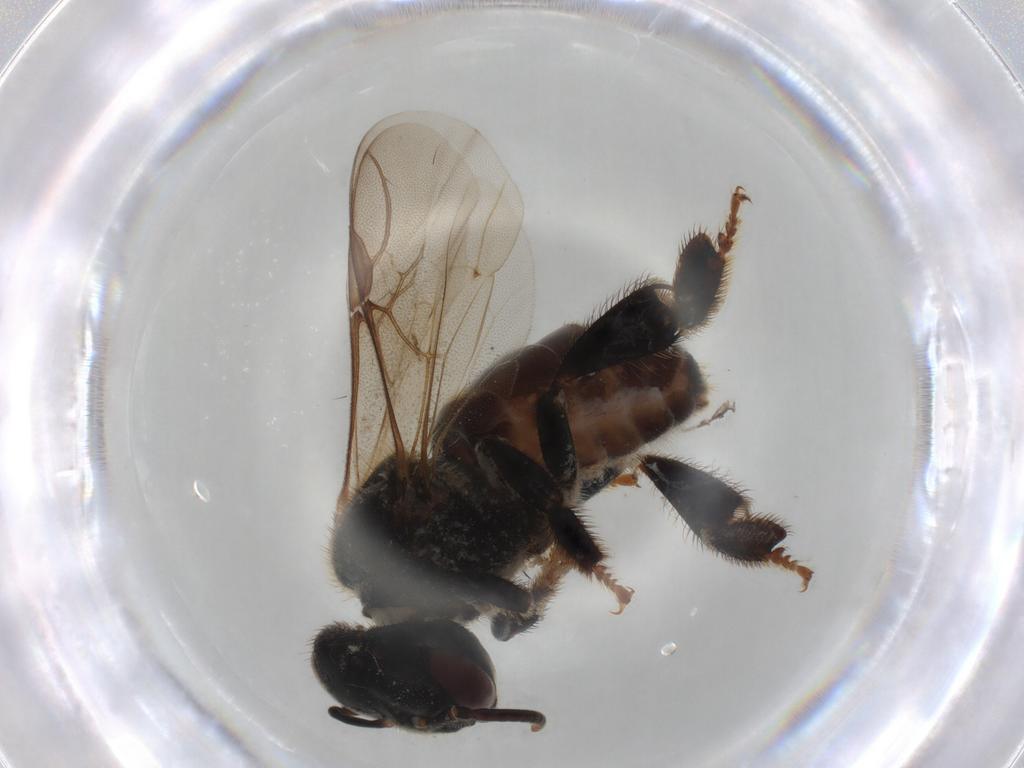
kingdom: Animalia
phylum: Arthropoda
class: Insecta
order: Hymenoptera
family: Apidae
